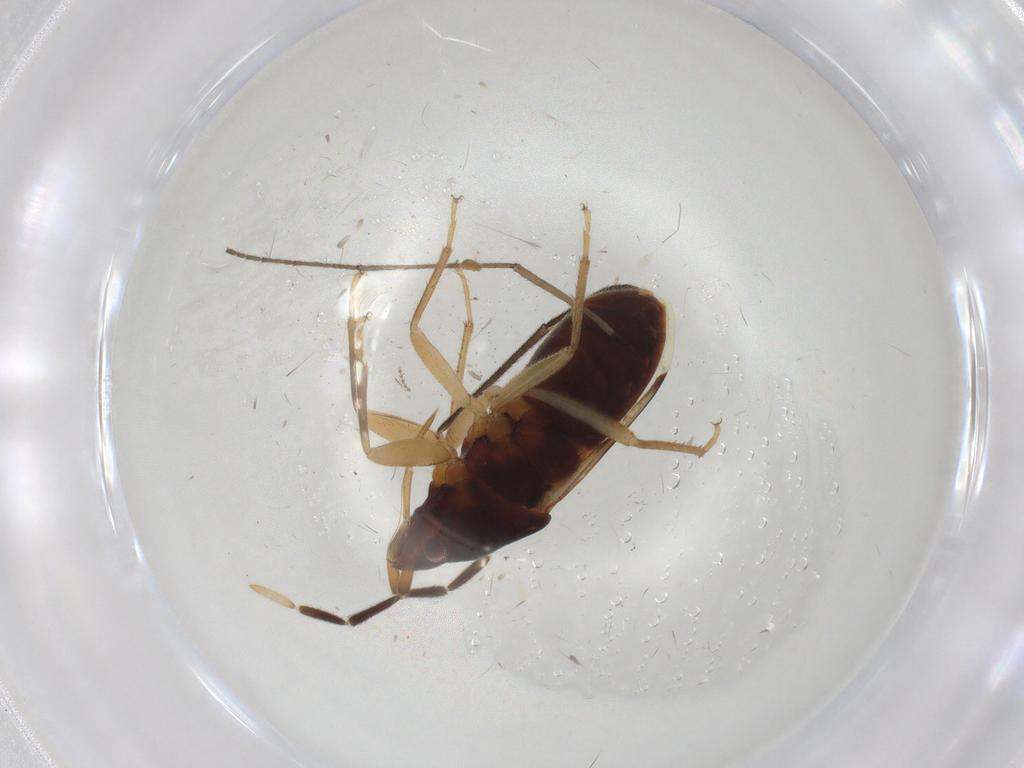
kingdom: Animalia
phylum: Arthropoda
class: Insecta
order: Hemiptera
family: Rhyparochromidae
